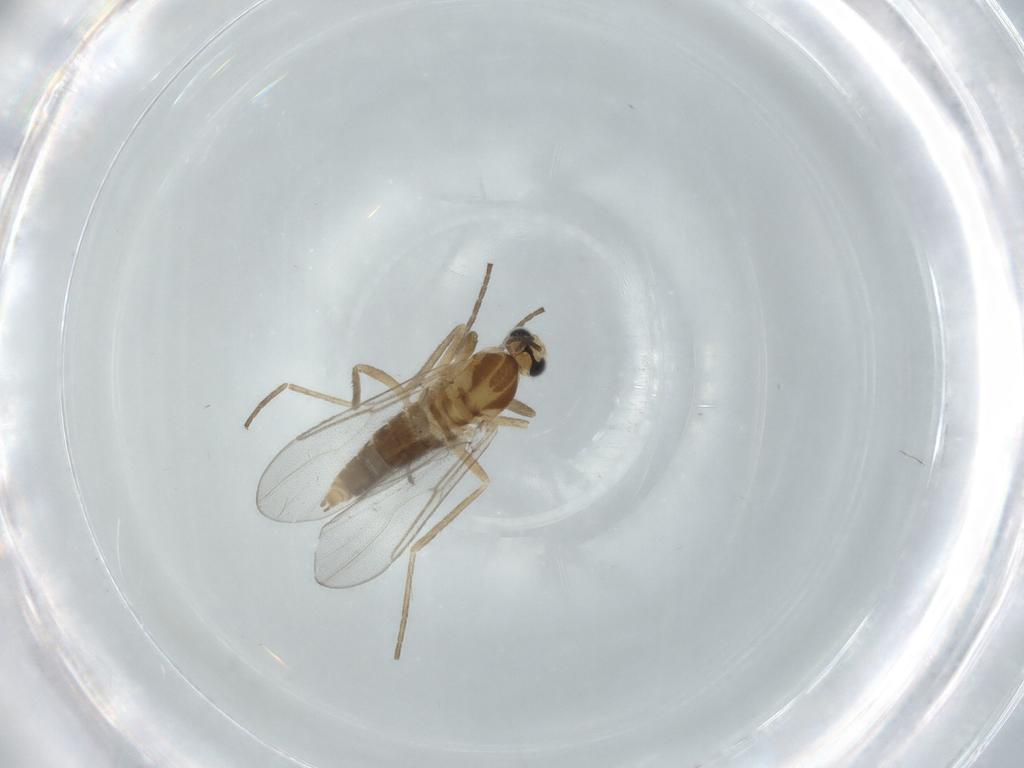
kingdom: Animalia
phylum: Arthropoda
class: Insecta
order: Diptera
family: Cecidomyiidae
